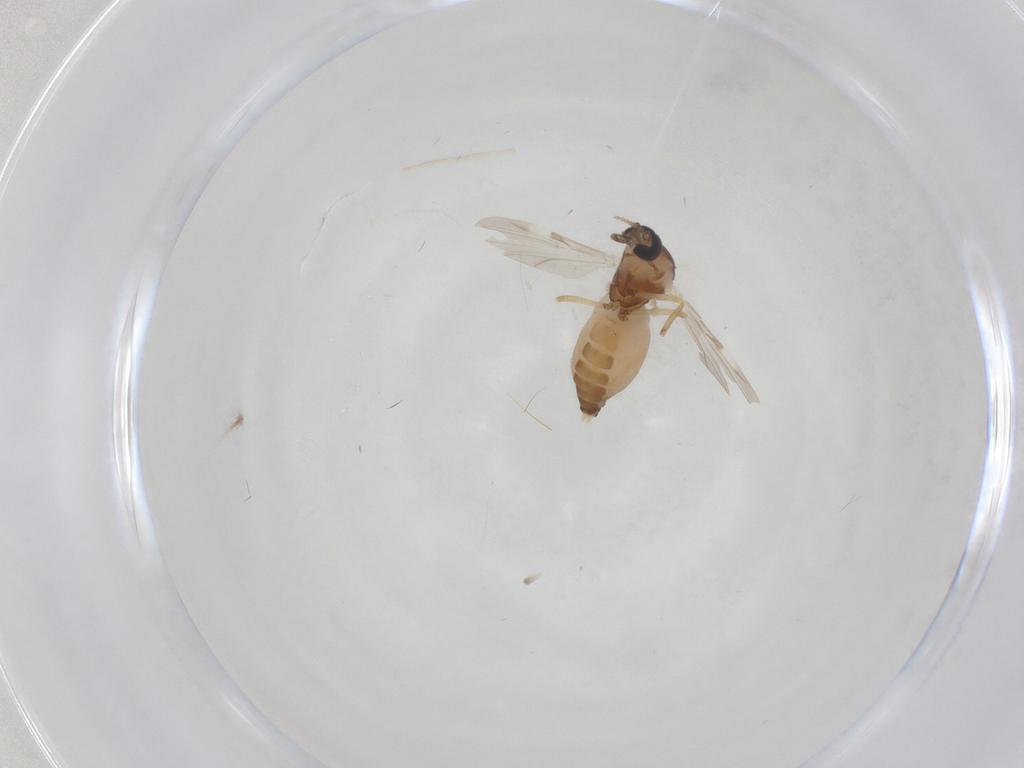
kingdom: Animalia
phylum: Arthropoda
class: Insecta
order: Diptera
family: Ceratopogonidae
